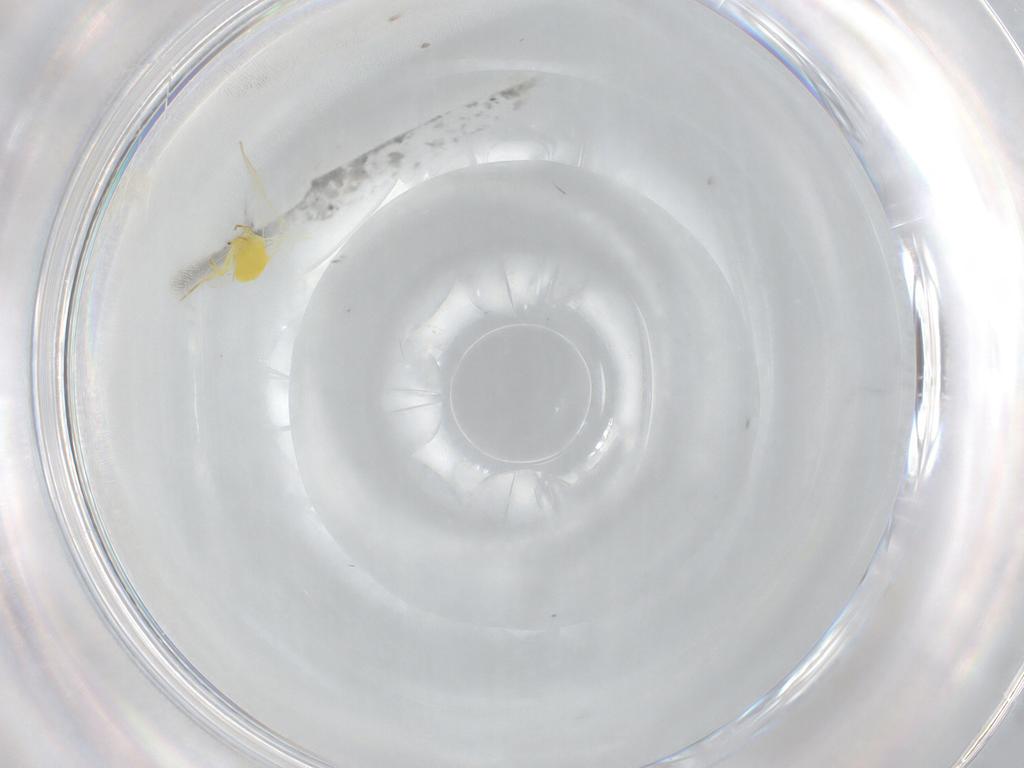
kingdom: Animalia
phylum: Arthropoda
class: Insecta
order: Hemiptera
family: Aleyrodidae
